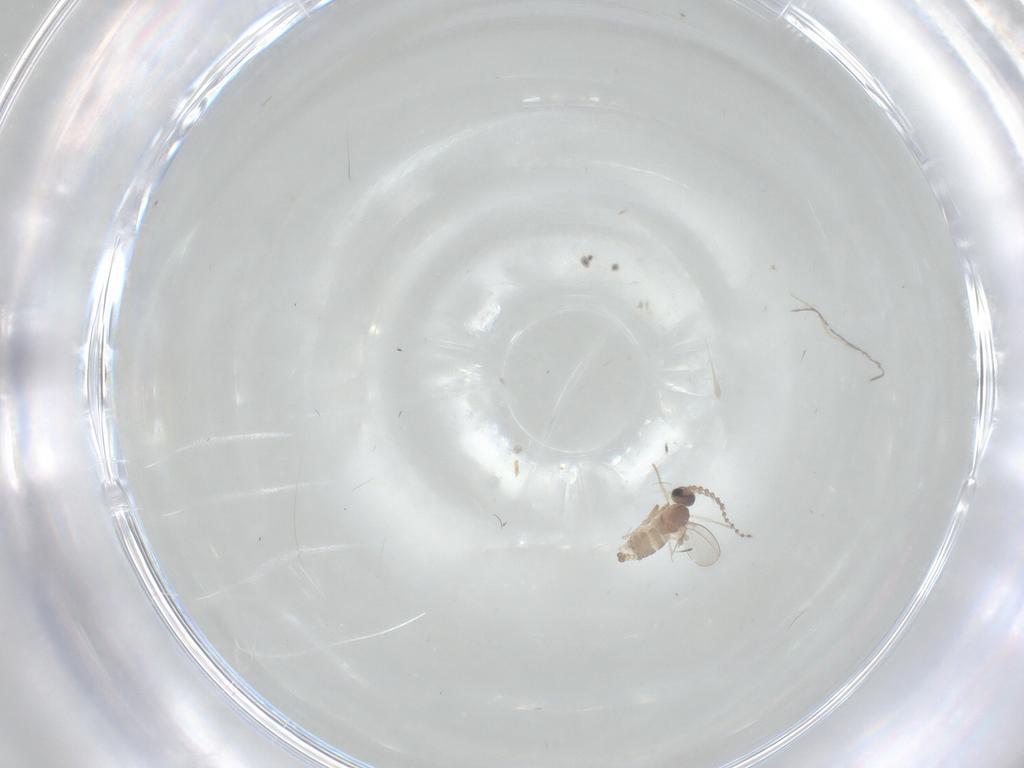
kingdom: Animalia
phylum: Arthropoda
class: Insecta
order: Diptera
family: Cecidomyiidae
